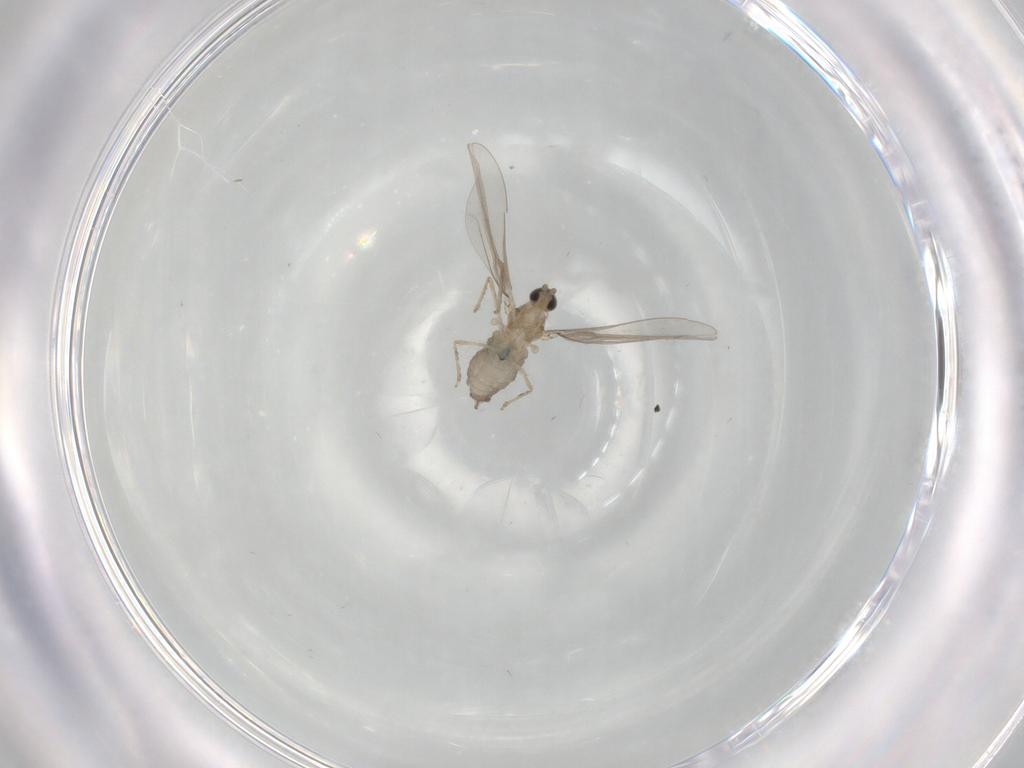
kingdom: Animalia
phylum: Arthropoda
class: Insecta
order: Diptera
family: Cecidomyiidae
